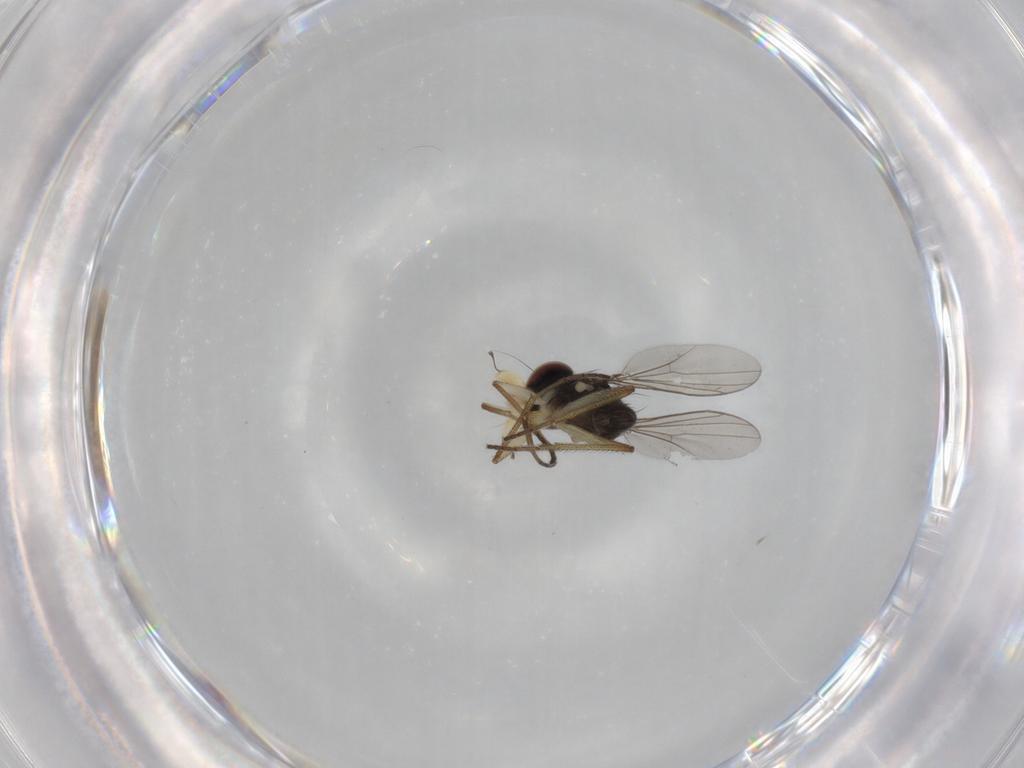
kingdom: Animalia
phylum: Arthropoda
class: Insecta
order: Diptera
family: Dolichopodidae
